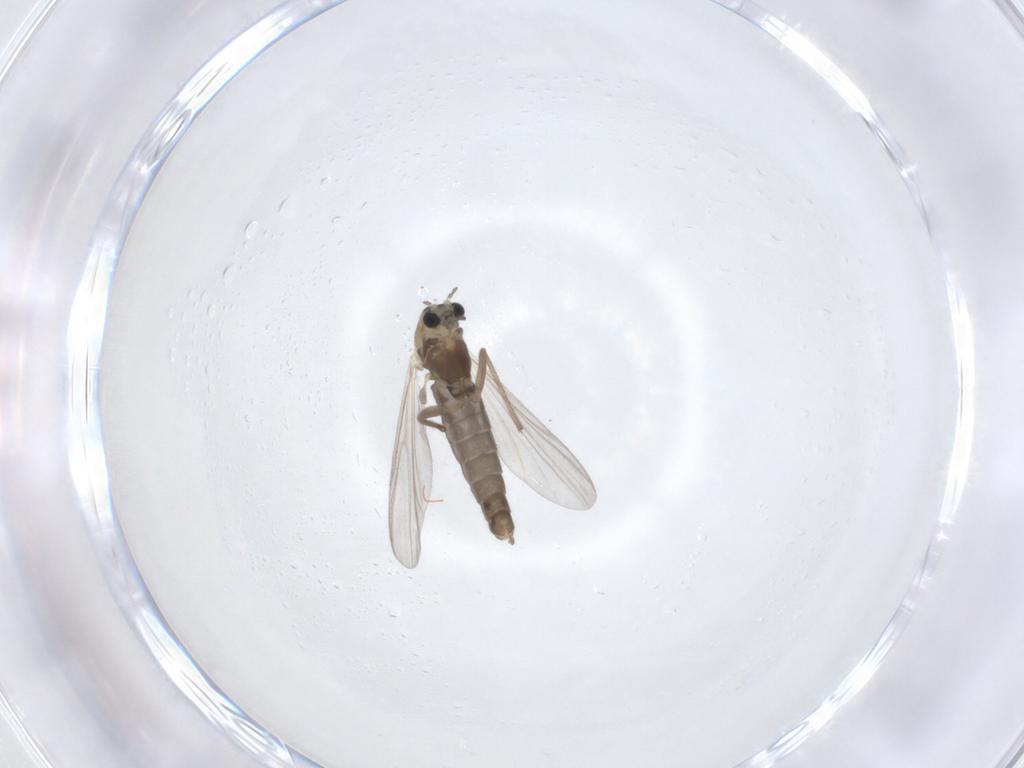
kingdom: Animalia
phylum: Arthropoda
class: Insecta
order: Diptera
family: Chironomidae
